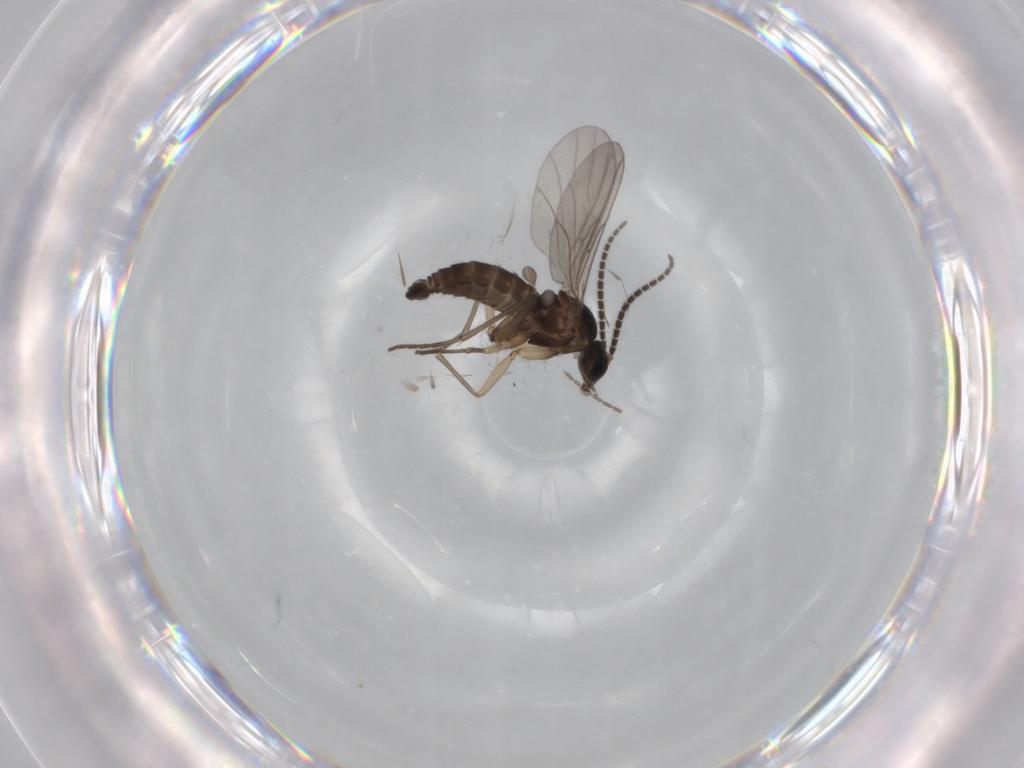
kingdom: Animalia
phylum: Arthropoda
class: Insecta
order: Diptera
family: Sciaridae
